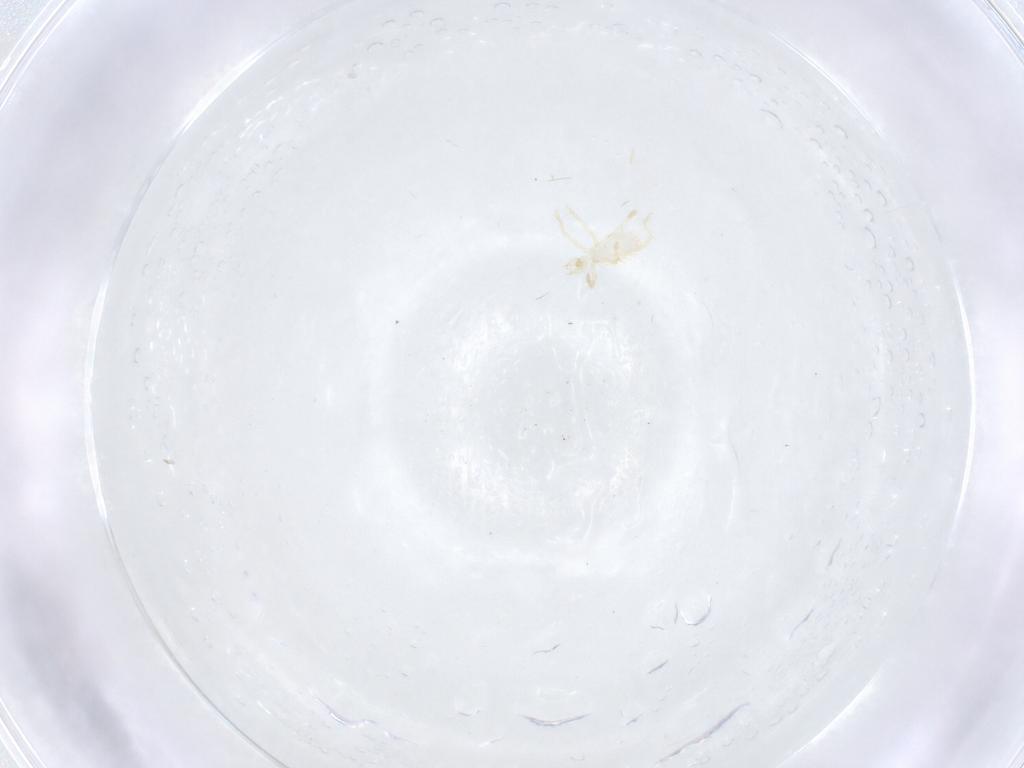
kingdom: Animalia
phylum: Arthropoda
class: Arachnida
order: Trombidiformes
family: Erythraeidae
